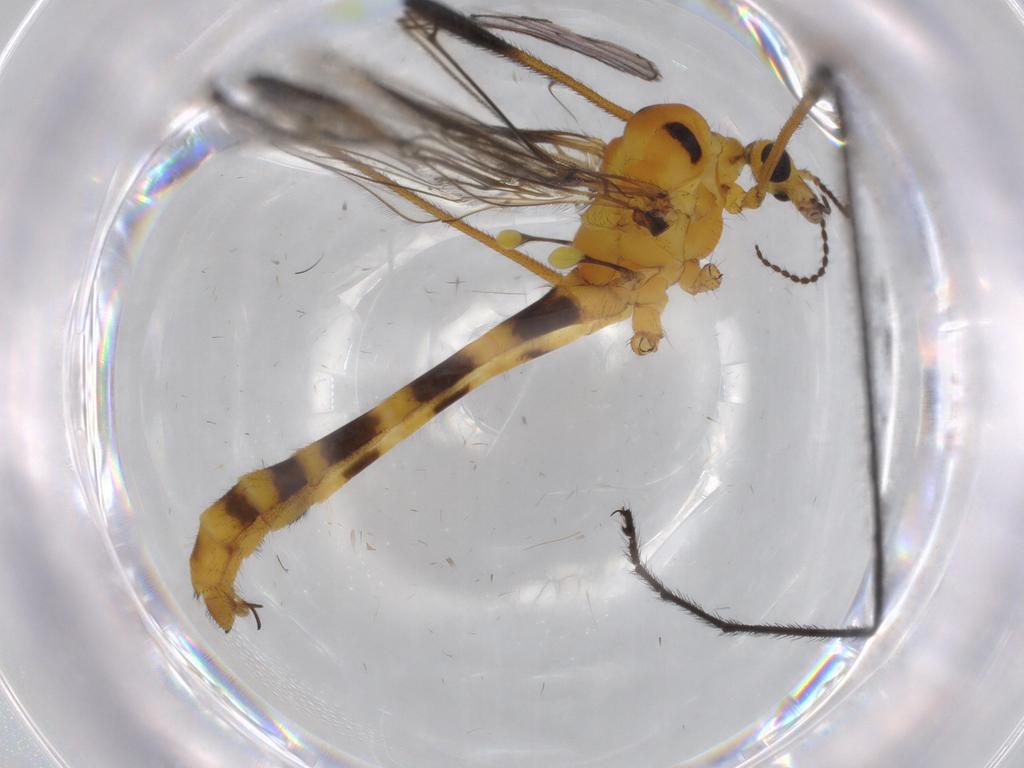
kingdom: Animalia
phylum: Arthropoda
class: Insecta
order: Diptera
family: Limoniidae
